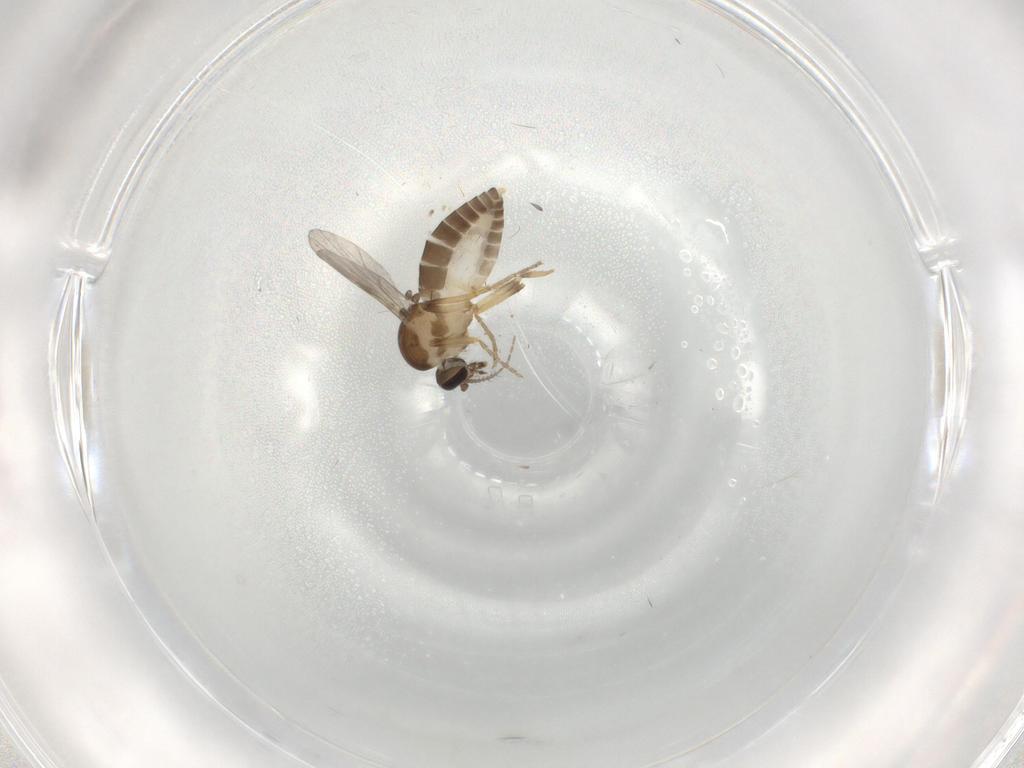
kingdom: Animalia
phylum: Arthropoda
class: Insecta
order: Diptera
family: Ceratopogonidae
